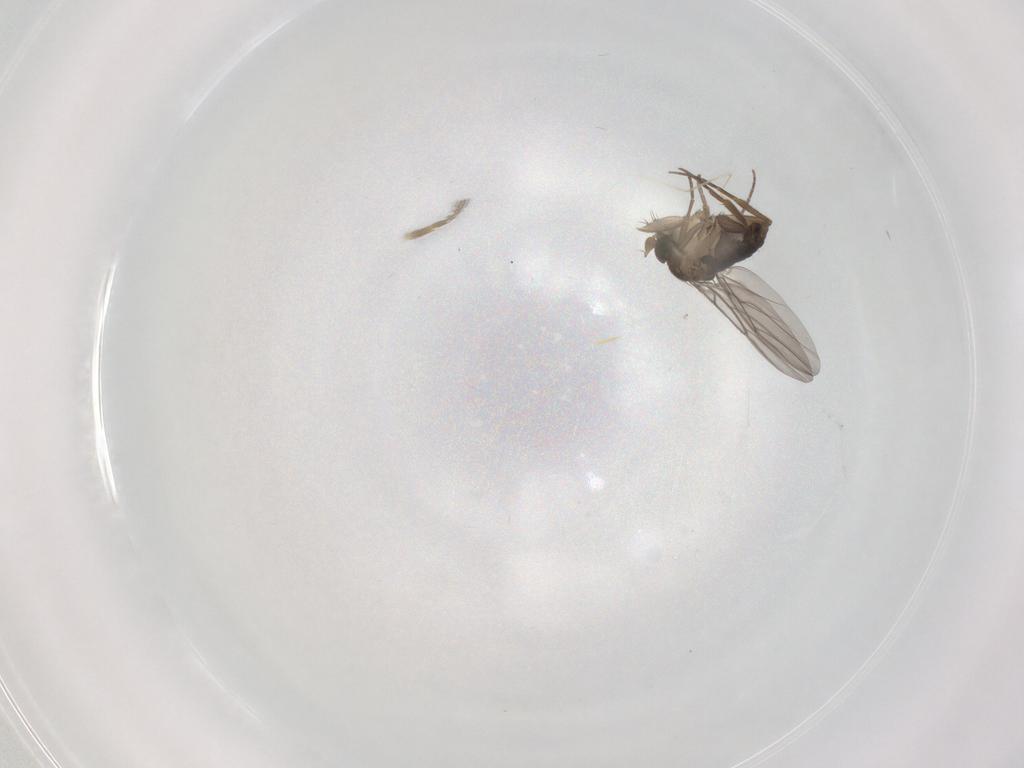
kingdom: Animalia
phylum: Arthropoda
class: Insecta
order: Diptera
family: Phoridae
